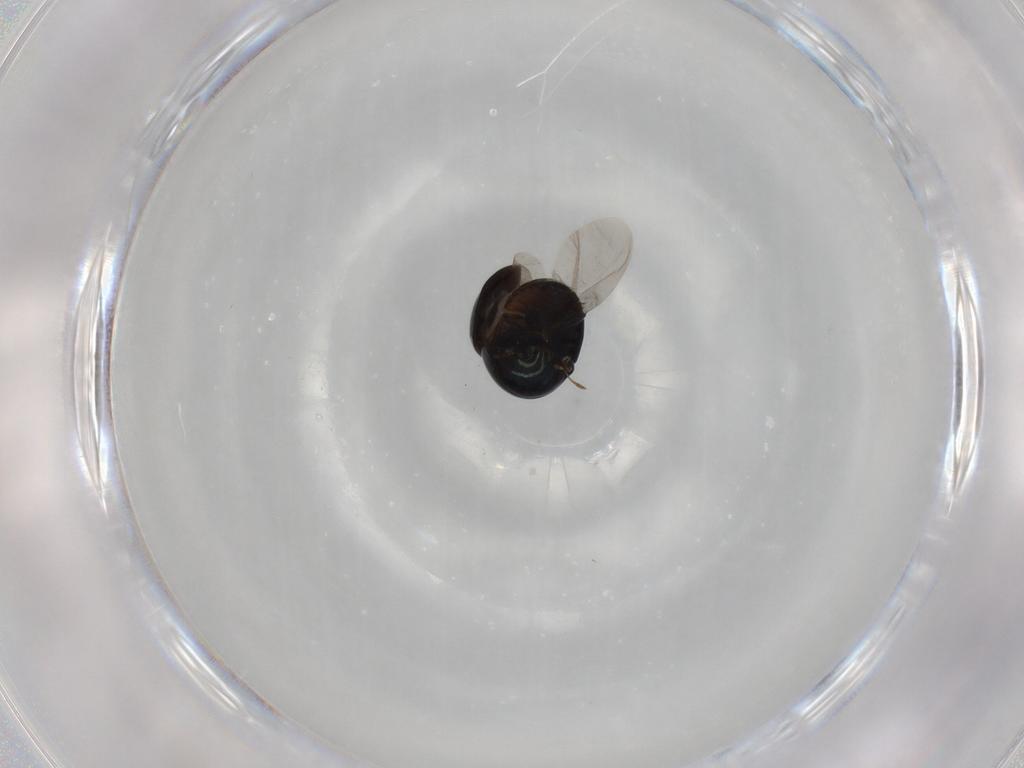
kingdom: Animalia
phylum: Arthropoda
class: Insecta
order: Coleoptera
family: Cybocephalidae
